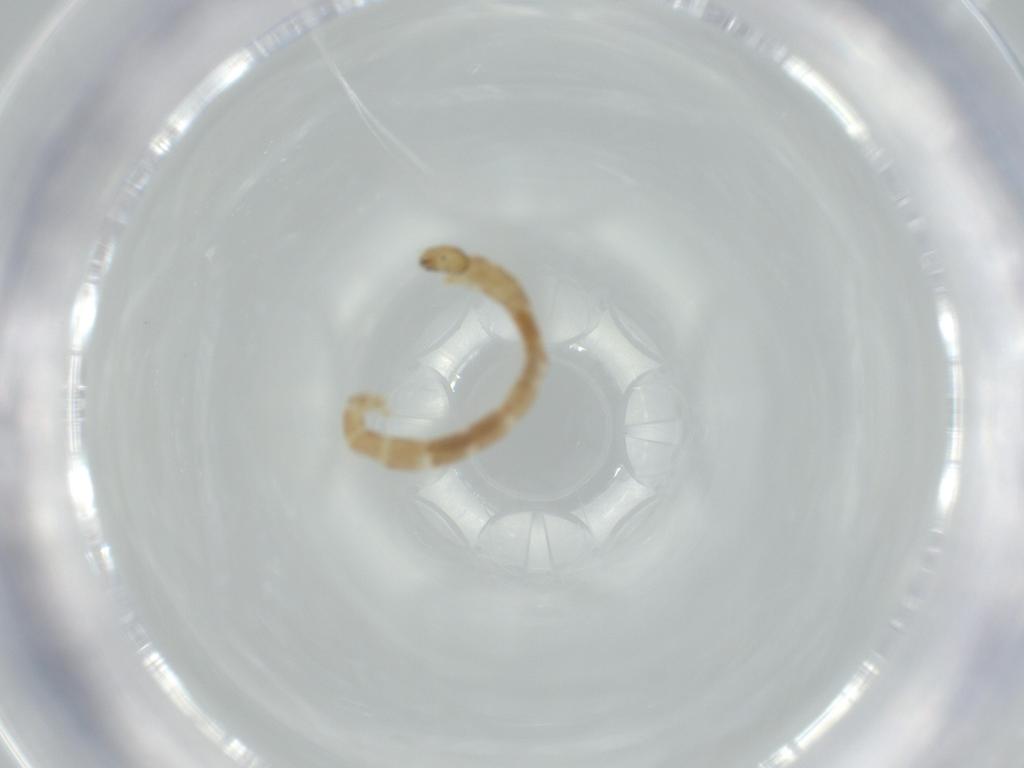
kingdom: Animalia
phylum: Arthropoda
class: Insecta
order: Diptera
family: Chironomidae
